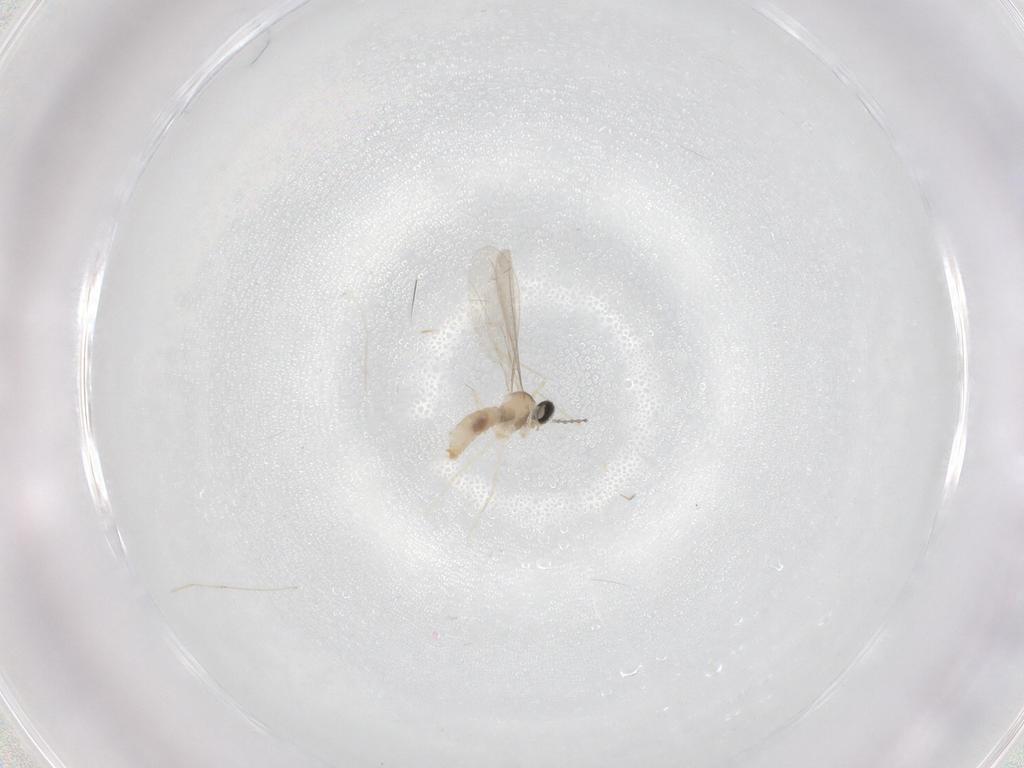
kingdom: Animalia
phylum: Arthropoda
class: Insecta
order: Diptera
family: Cecidomyiidae
